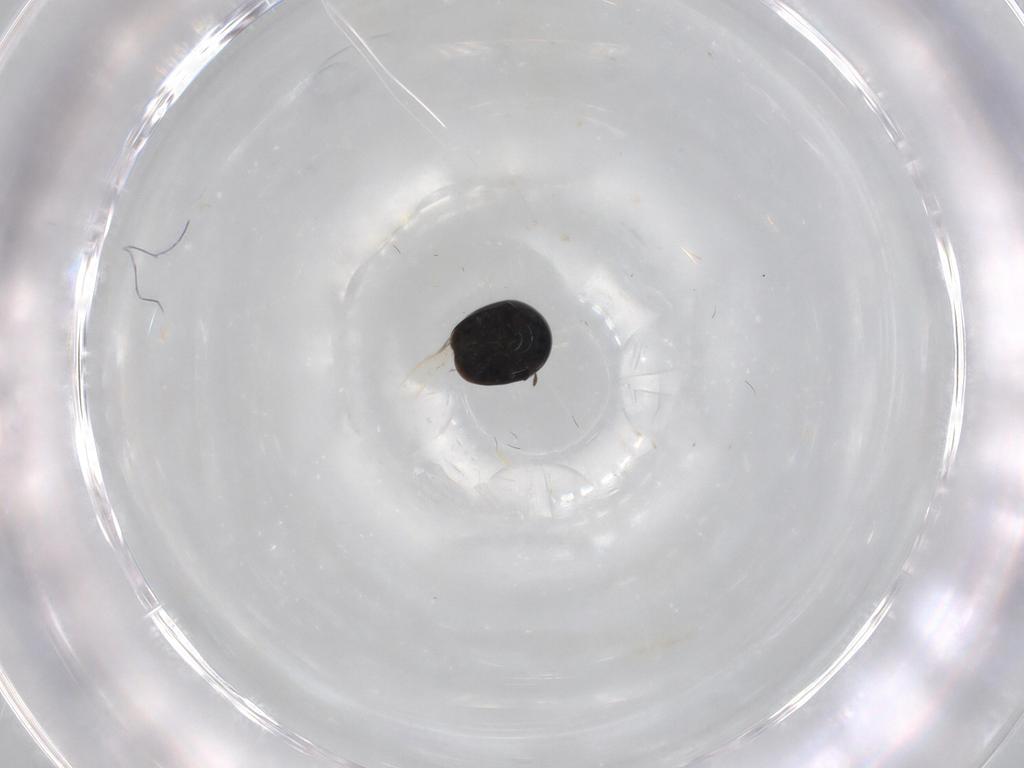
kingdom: Animalia
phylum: Arthropoda
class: Insecta
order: Coleoptera
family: Cybocephalidae
